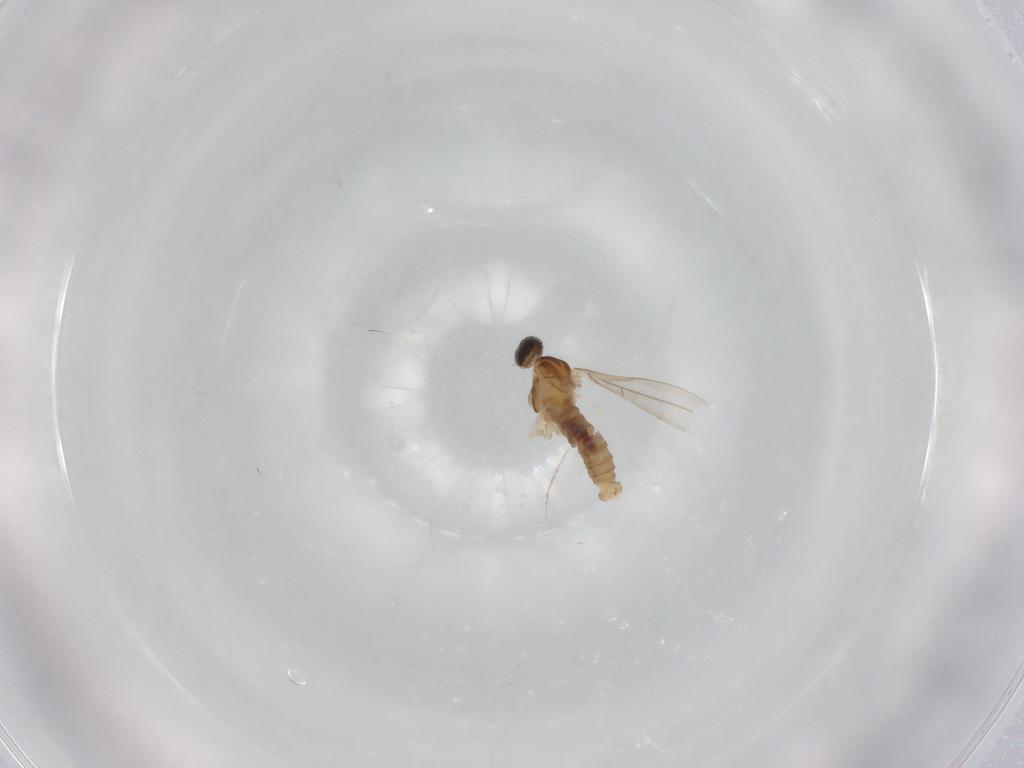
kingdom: Animalia
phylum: Arthropoda
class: Insecta
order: Diptera
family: Cecidomyiidae
